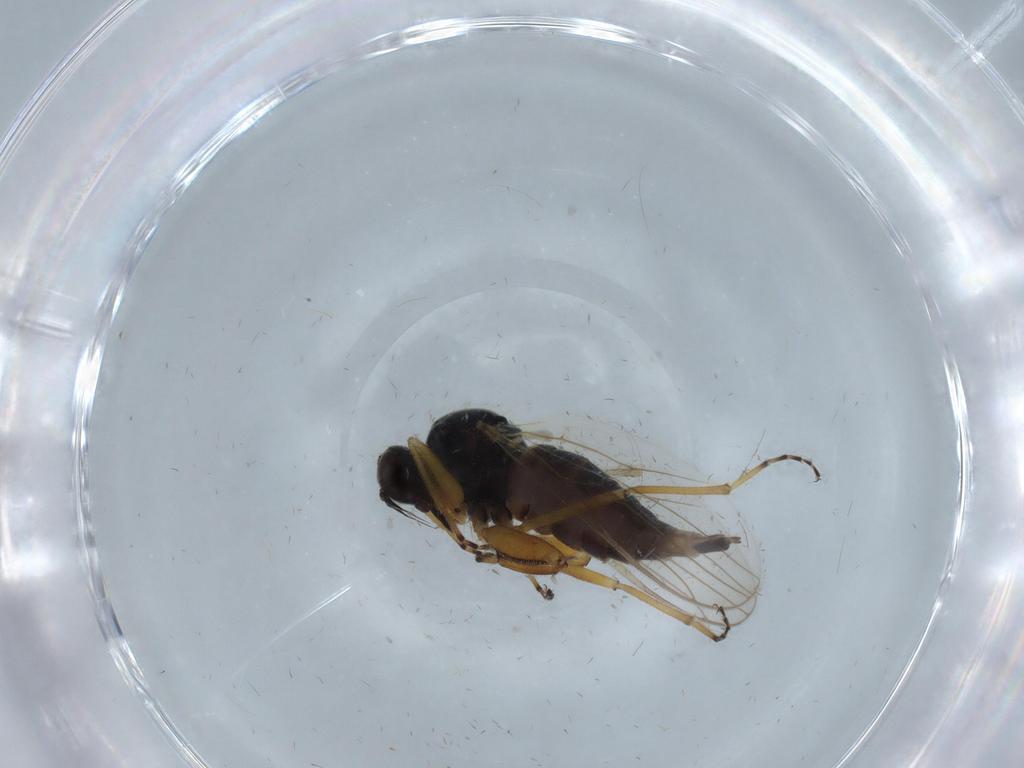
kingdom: Animalia
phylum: Arthropoda
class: Insecta
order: Diptera
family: Hybotidae
